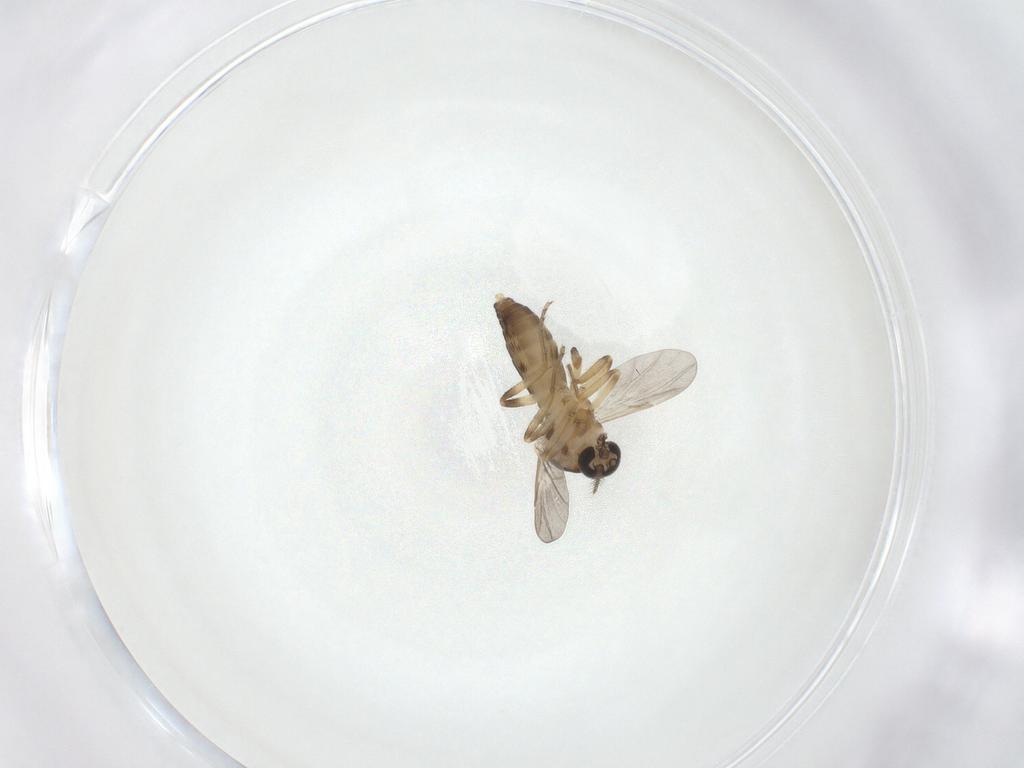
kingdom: Animalia
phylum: Arthropoda
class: Insecta
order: Diptera
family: Ceratopogonidae
